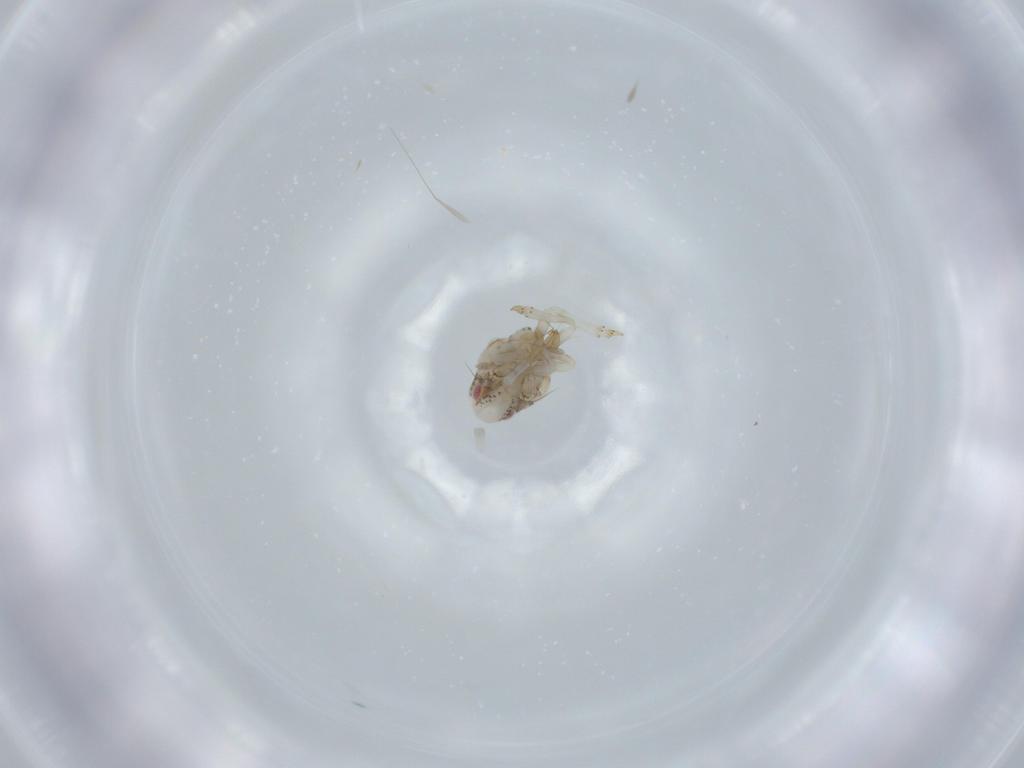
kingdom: Animalia
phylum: Arthropoda
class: Insecta
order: Hemiptera
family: Acanaloniidae
